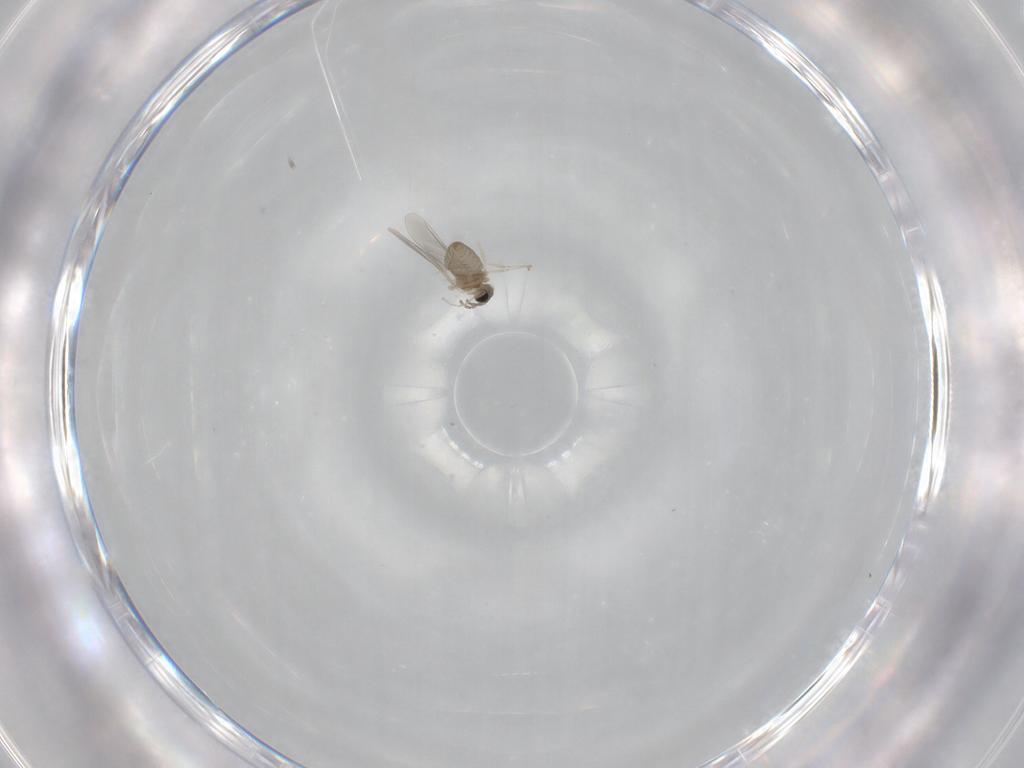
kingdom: Animalia
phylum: Arthropoda
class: Insecta
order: Diptera
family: Cecidomyiidae
